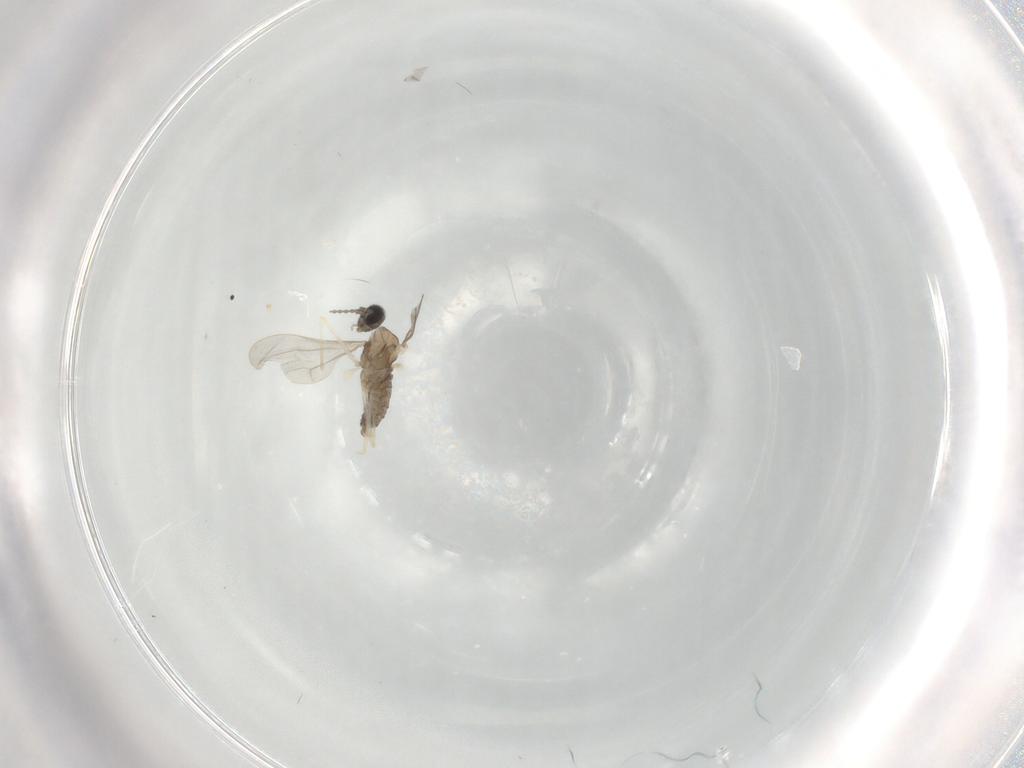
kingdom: Animalia
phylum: Arthropoda
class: Insecta
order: Diptera
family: Cecidomyiidae
